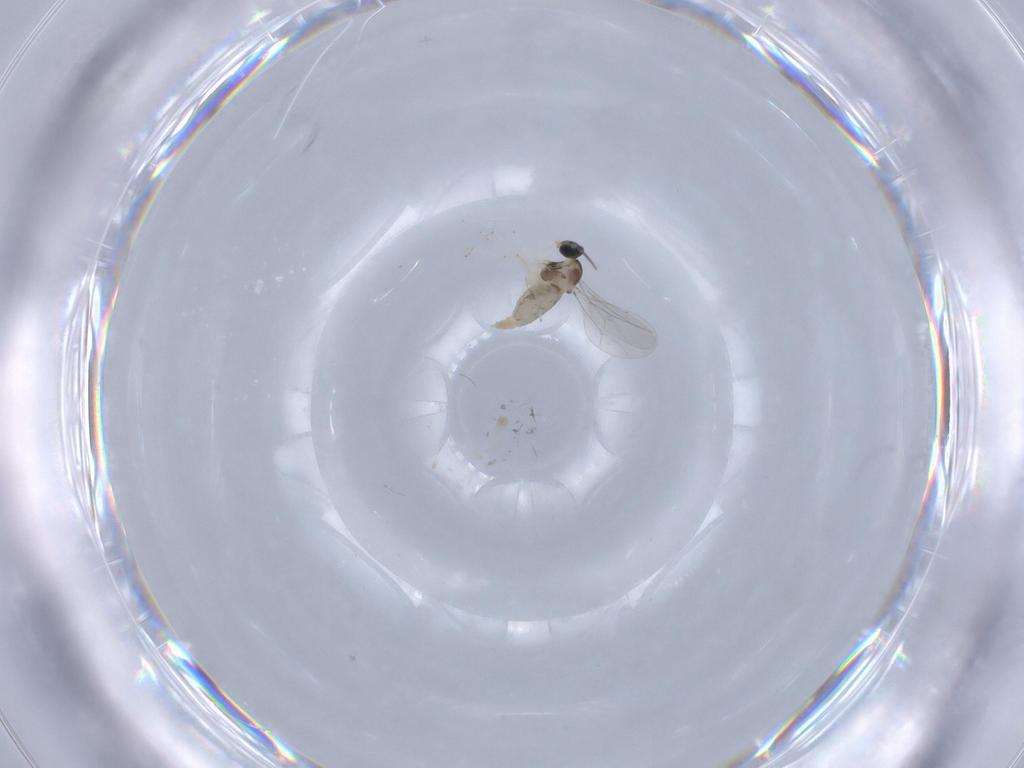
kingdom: Animalia
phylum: Arthropoda
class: Insecta
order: Diptera
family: Cecidomyiidae
